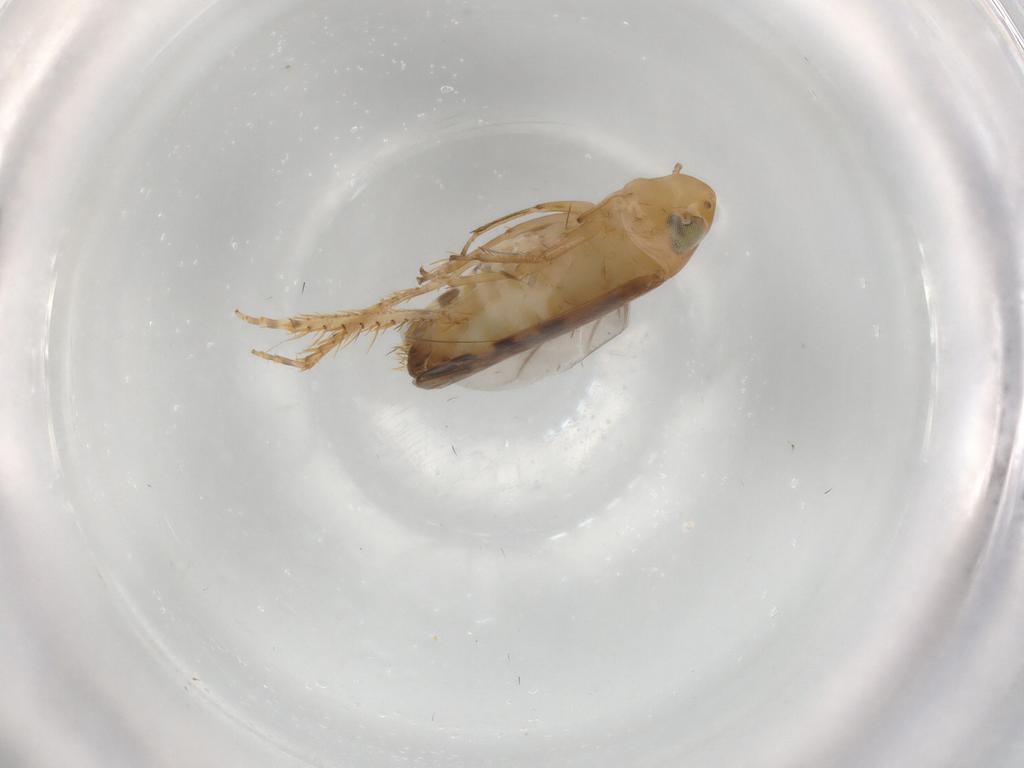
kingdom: Animalia
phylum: Arthropoda
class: Insecta
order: Hemiptera
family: Cicadellidae
